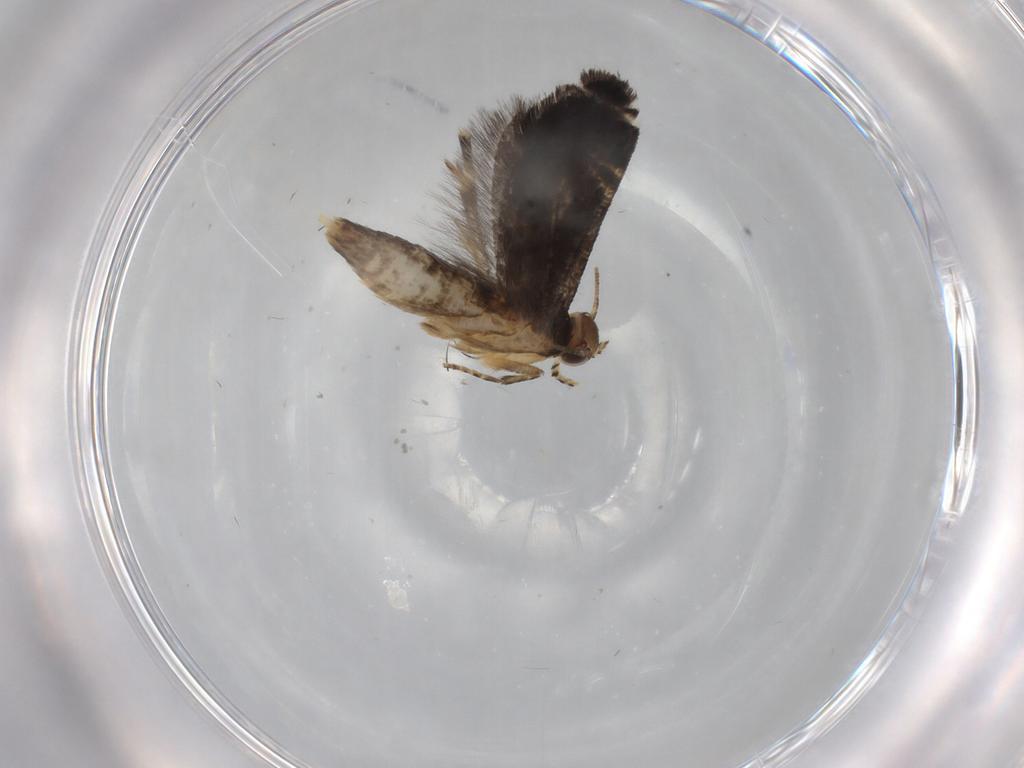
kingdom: Animalia
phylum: Arthropoda
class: Insecta
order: Lepidoptera
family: Glyphipterigidae
